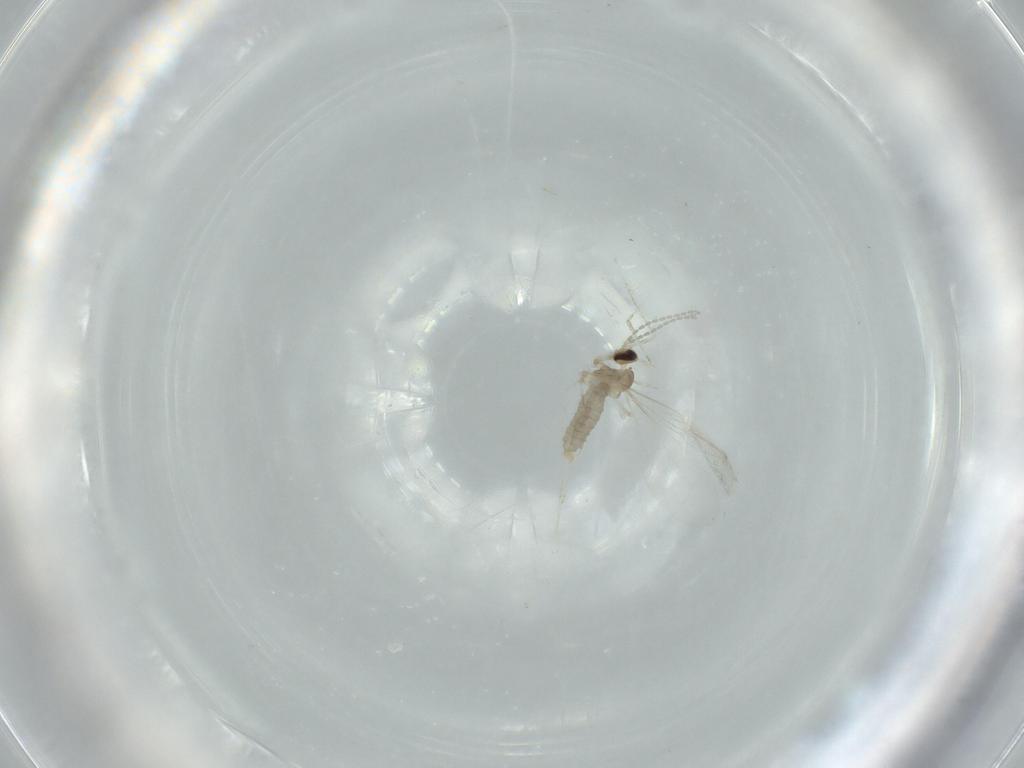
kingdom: Animalia
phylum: Arthropoda
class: Insecta
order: Diptera
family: Cecidomyiidae
